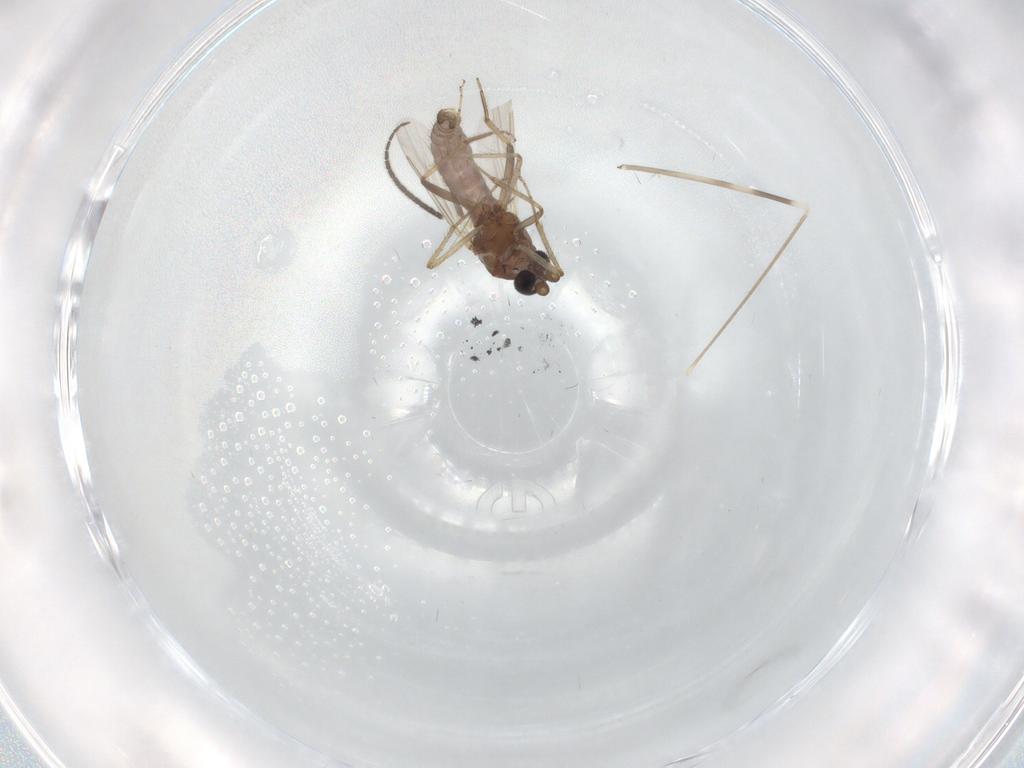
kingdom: Animalia
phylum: Arthropoda
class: Insecta
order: Diptera
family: Ceratopogonidae
